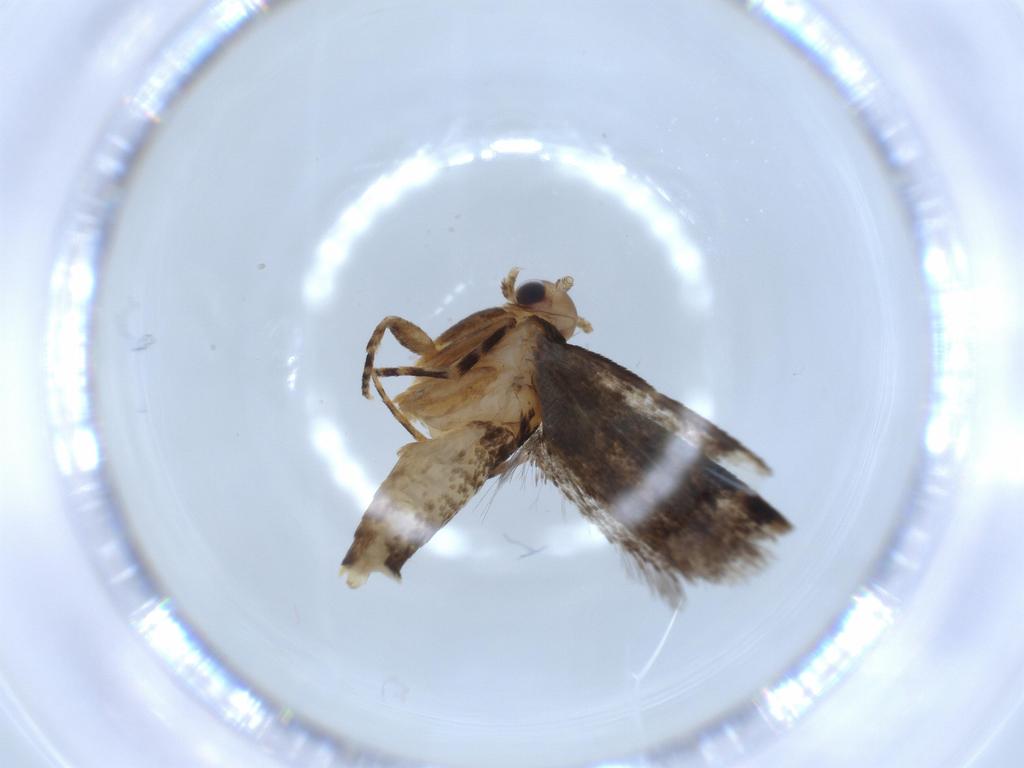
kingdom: Animalia
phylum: Arthropoda
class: Insecta
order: Lepidoptera
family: Tineidae
